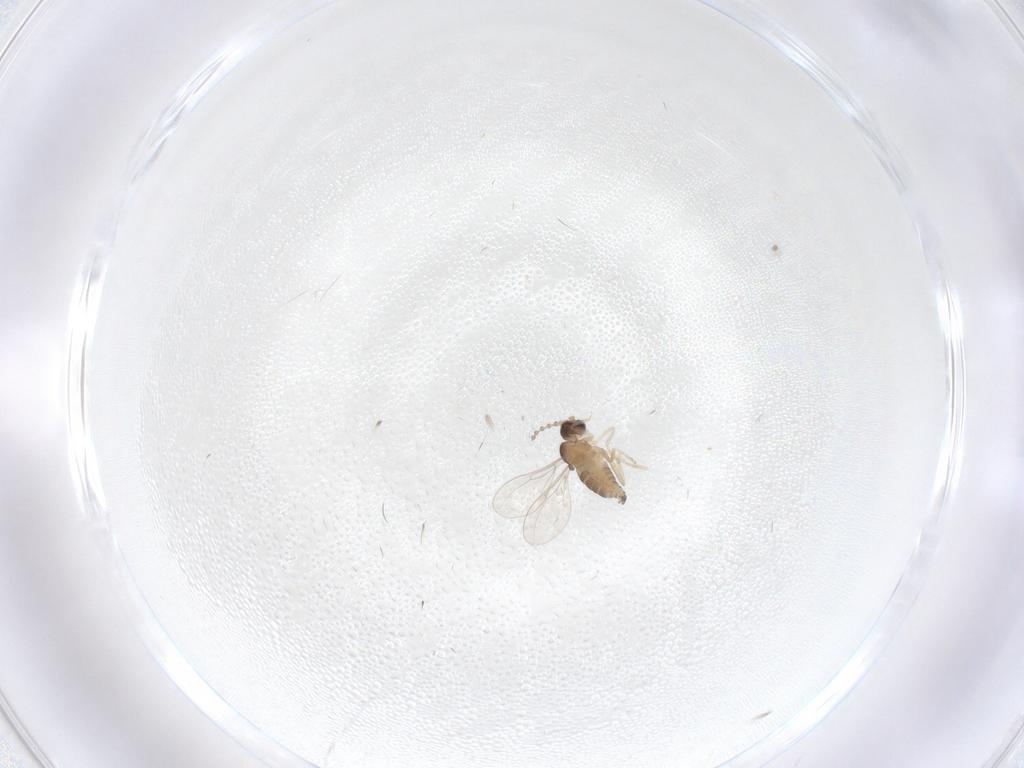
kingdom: Animalia
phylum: Arthropoda
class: Insecta
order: Diptera
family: Cecidomyiidae
